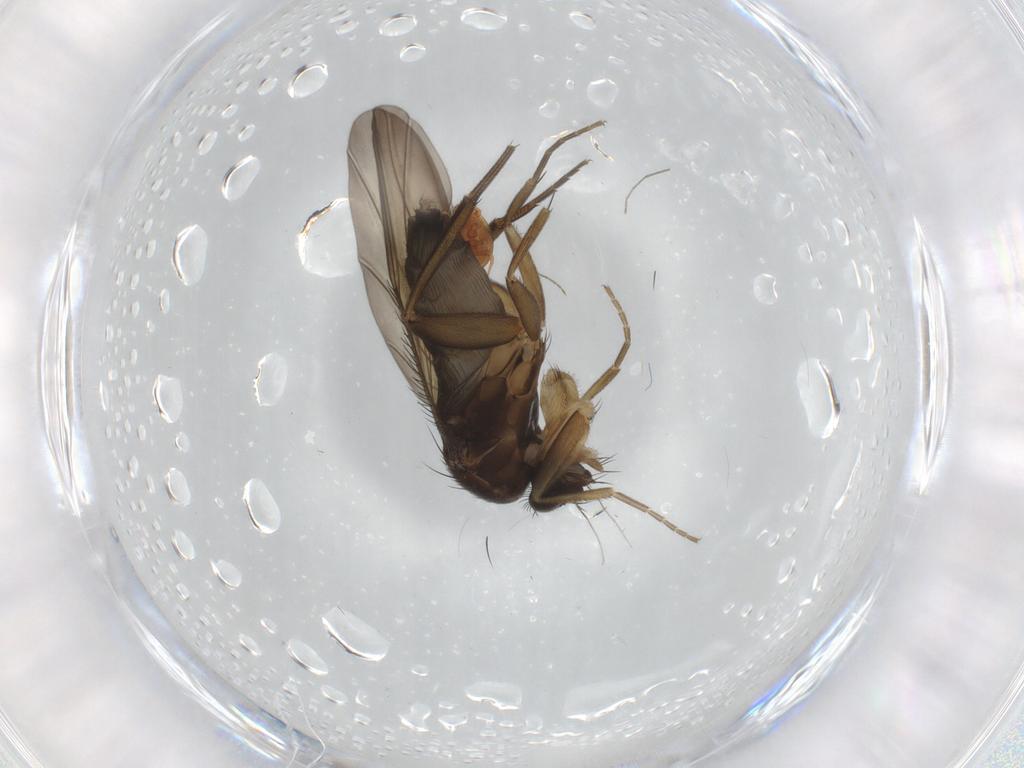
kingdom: Animalia
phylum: Arthropoda
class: Insecta
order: Diptera
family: Phoridae
